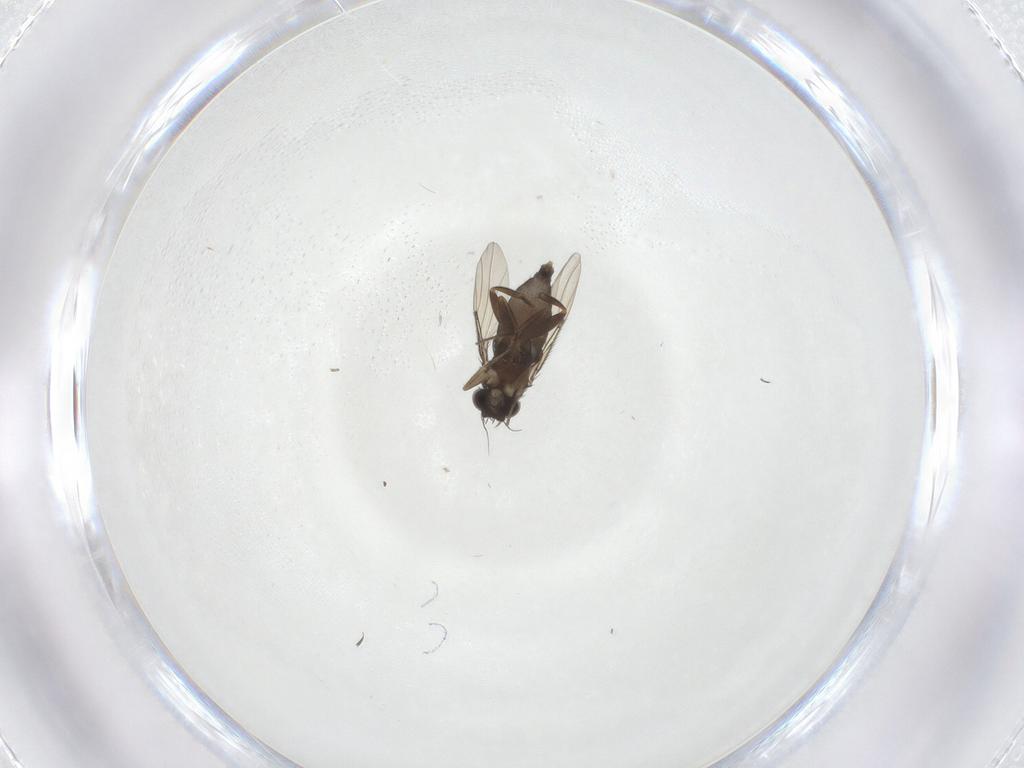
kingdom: Animalia
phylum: Arthropoda
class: Insecta
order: Diptera
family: Phoridae
